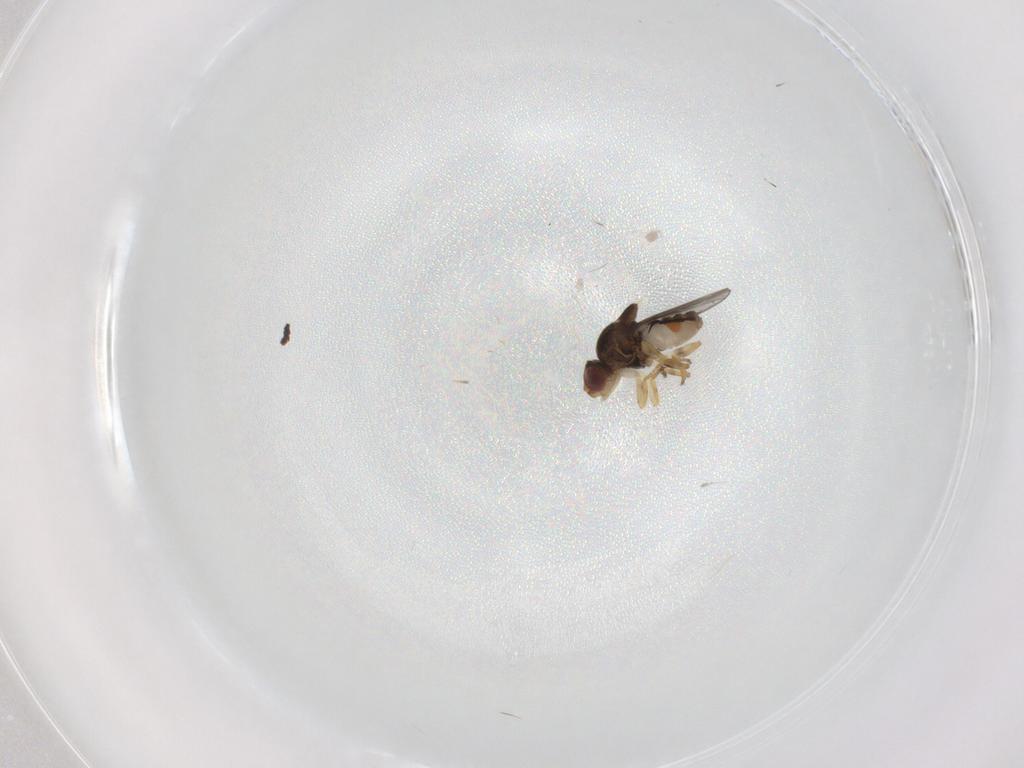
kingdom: Animalia
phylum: Arthropoda
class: Insecta
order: Diptera
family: Chloropidae
